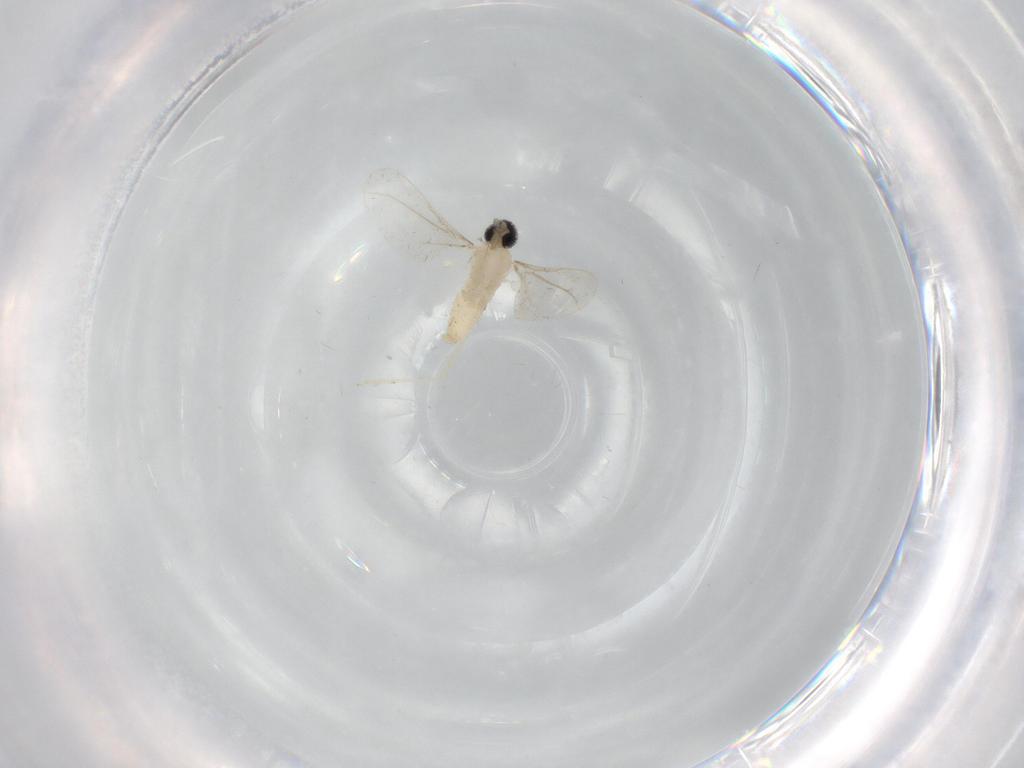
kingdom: Animalia
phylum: Arthropoda
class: Insecta
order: Diptera
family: Cecidomyiidae
